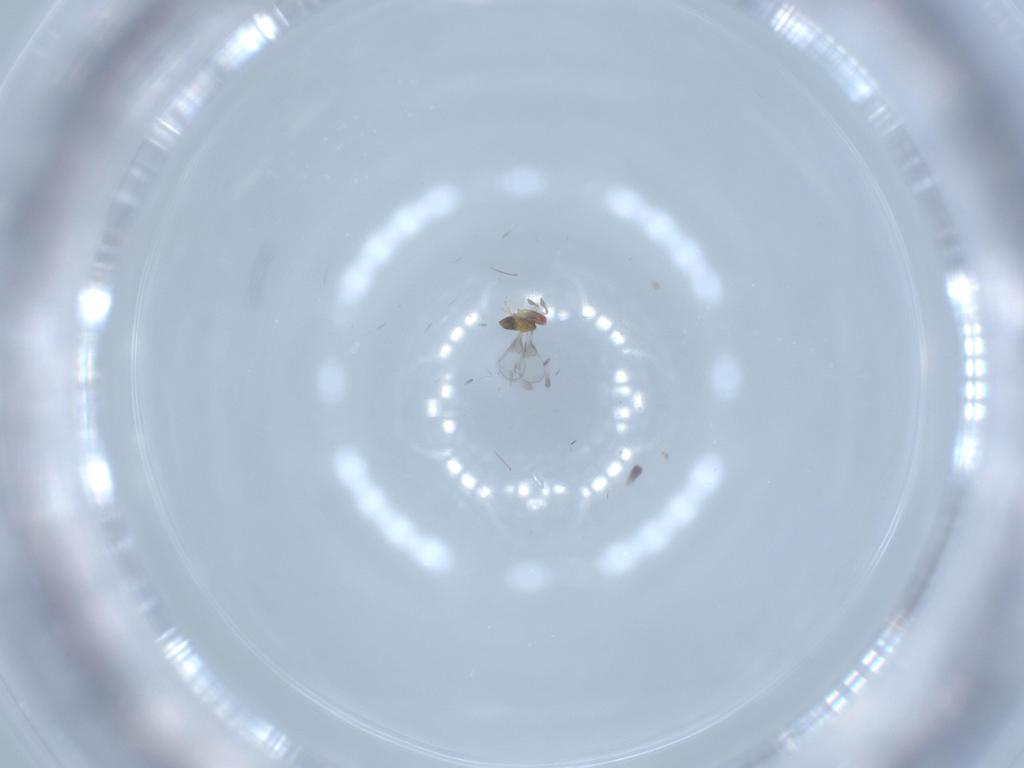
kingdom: Animalia
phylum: Arthropoda
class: Insecta
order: Hymenoptera
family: Trichogrammatidae
